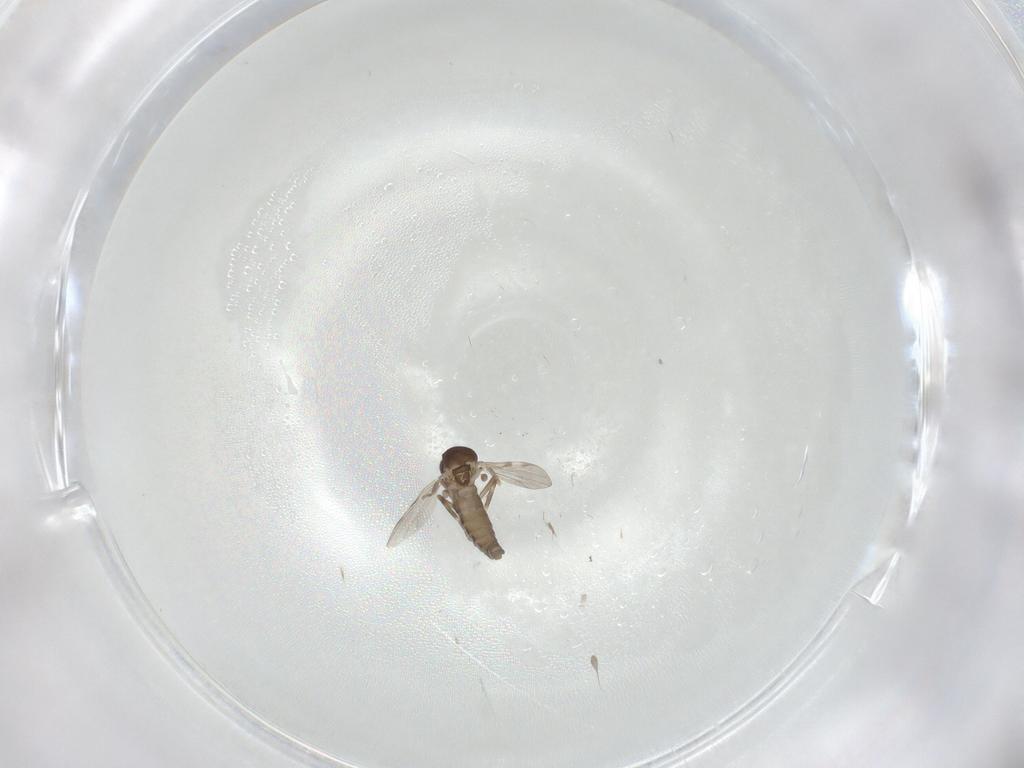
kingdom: Animalia
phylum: Arthropoda
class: Insecta
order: Diptera
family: Ceratopogonidae
